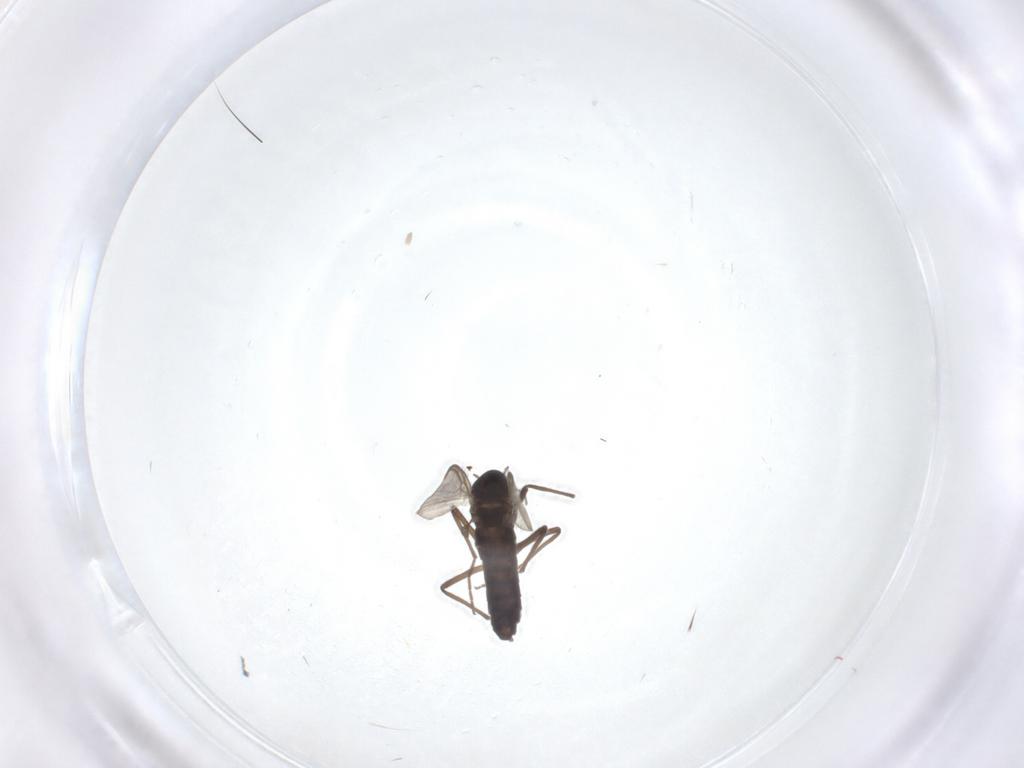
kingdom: Animalia
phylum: Arthropoda
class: Insecta
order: Diptera
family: Chironomidae
